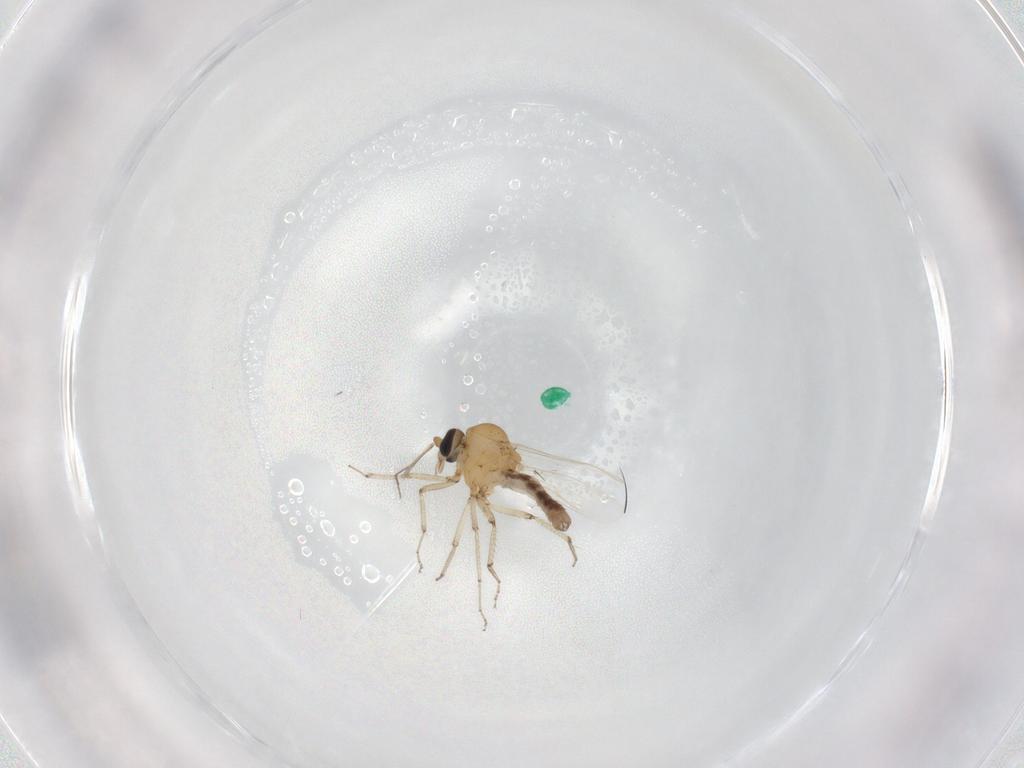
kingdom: Animalia
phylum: Arthropoda
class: Insecta
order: Diptera
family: Ceratopogonidae
